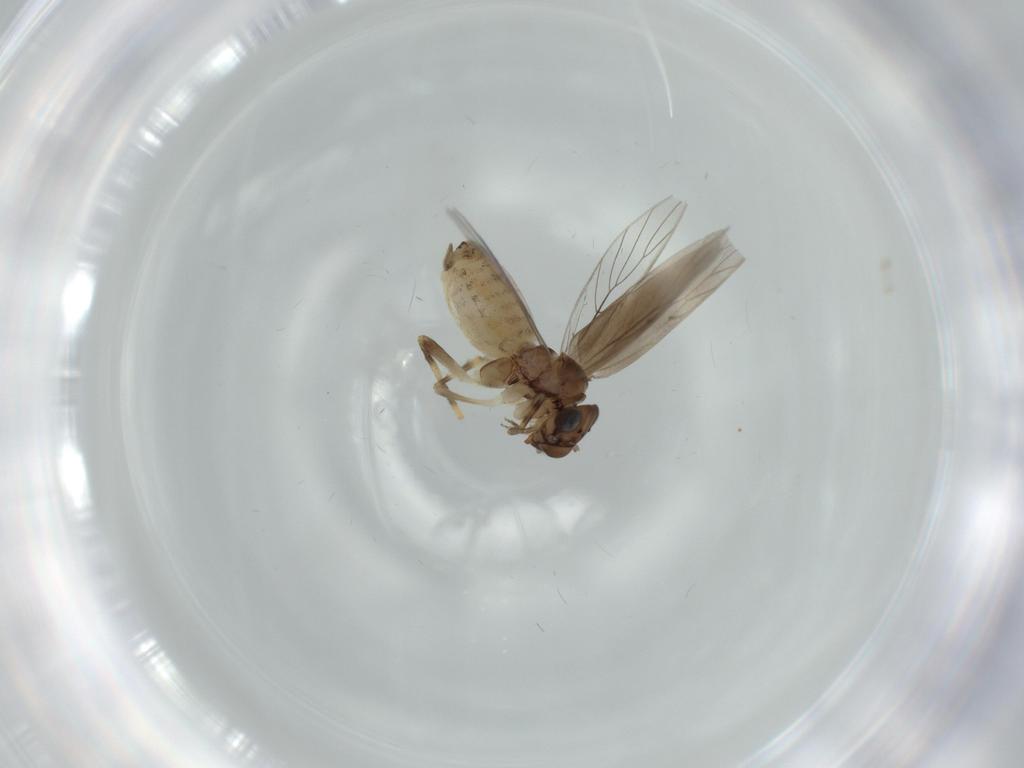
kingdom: Animalia
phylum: Arthropoda
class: Insecta
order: Psocodea
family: Lepidopsocidae
